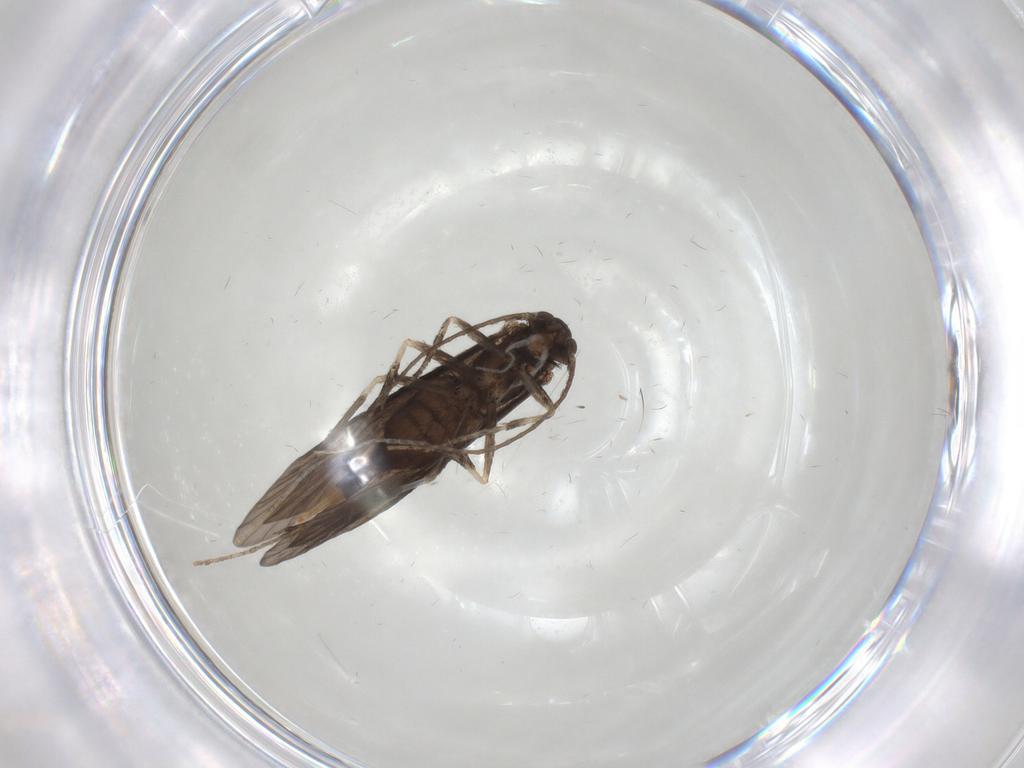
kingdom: Animalia
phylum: Arthropoda
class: Insecta
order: Trichoptera
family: Xiphocentronidae
